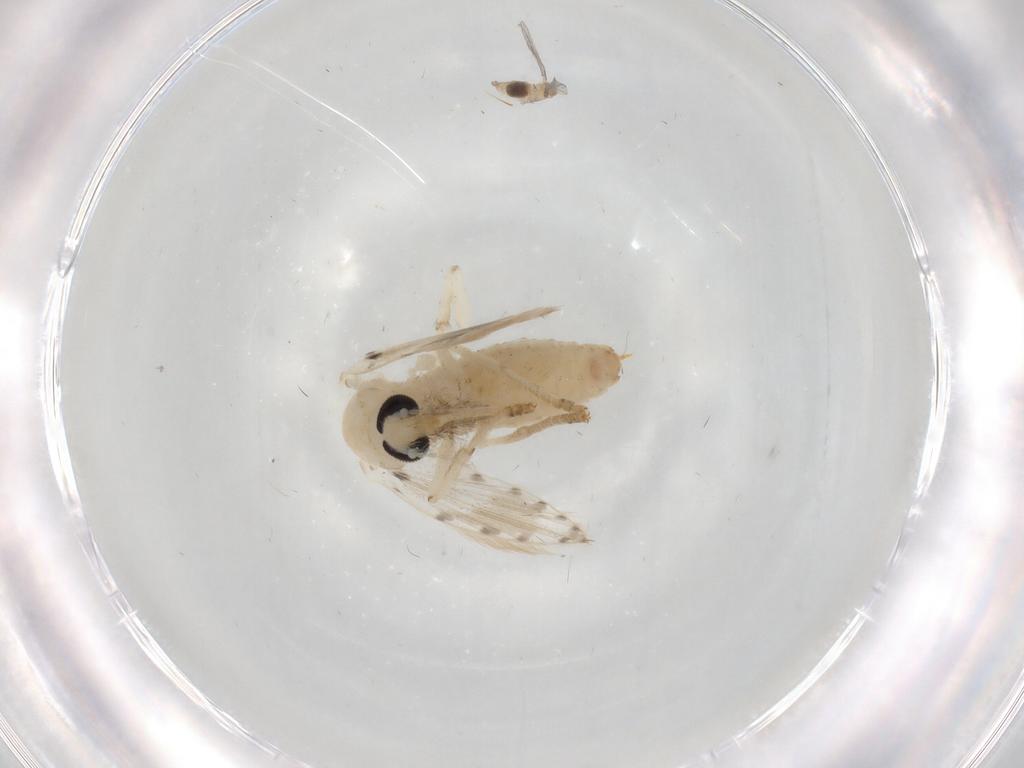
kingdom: Animalia
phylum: Arthropoda
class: Insecta
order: Diptera
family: Psychodidae
